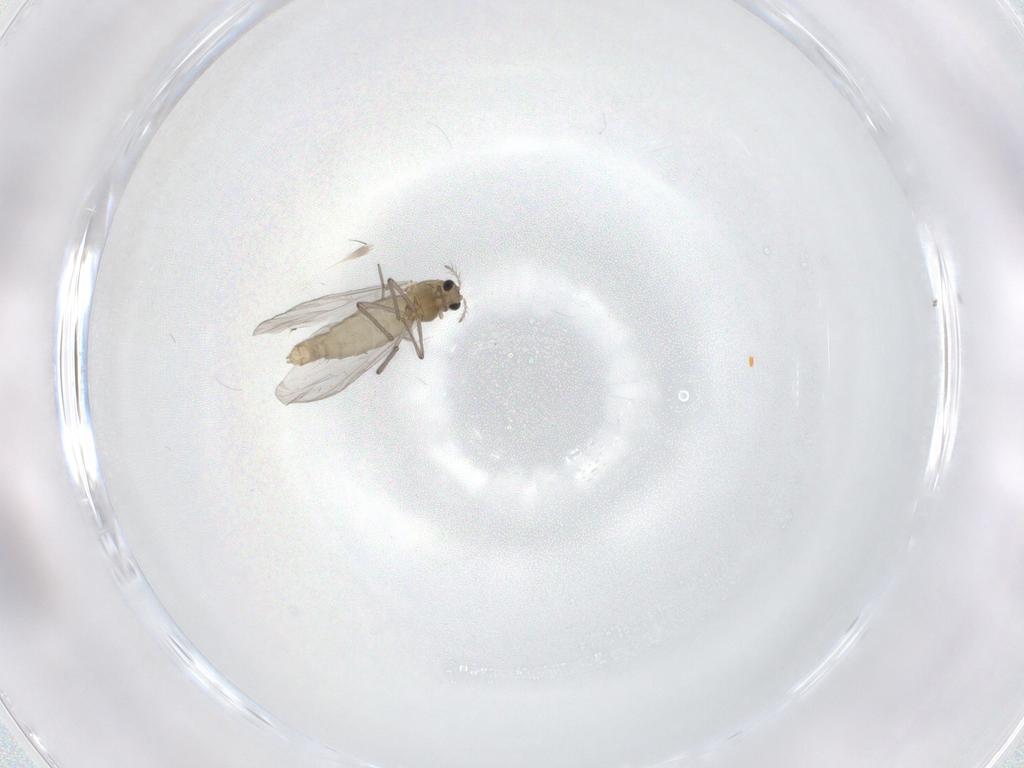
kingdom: Animalia
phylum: Arthropoda
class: Insecta
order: Diptera
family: Chironomidae
